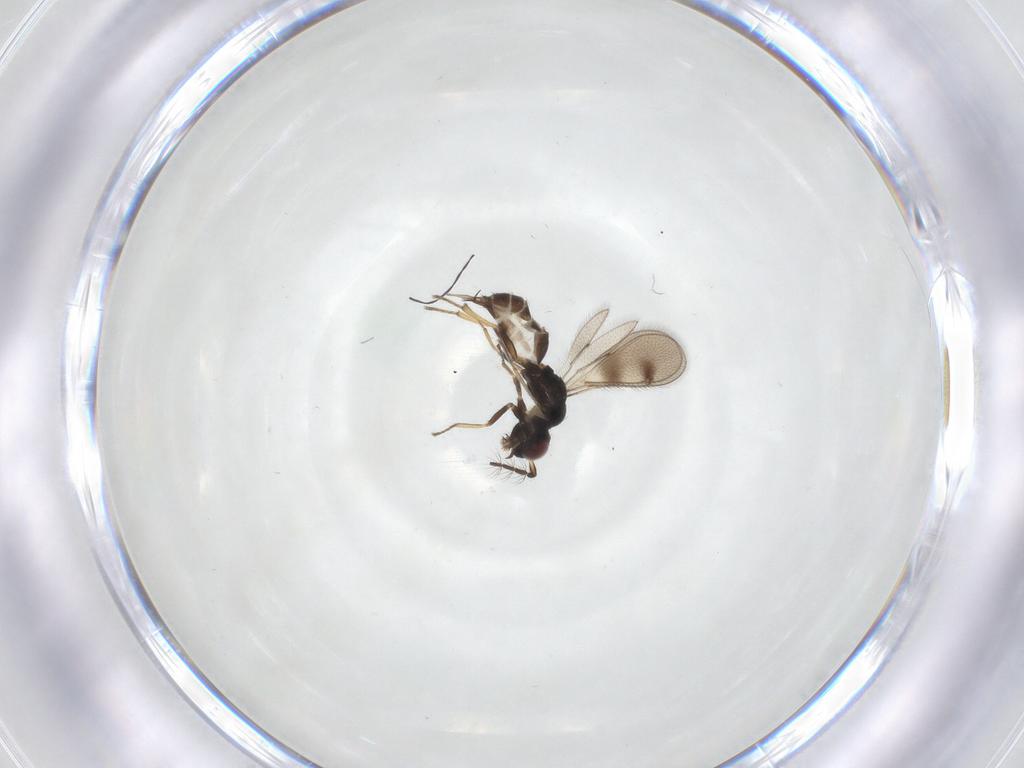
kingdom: Animalia
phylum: Arthropoda
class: Insecta
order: Hymenoptera
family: Eulophidae
